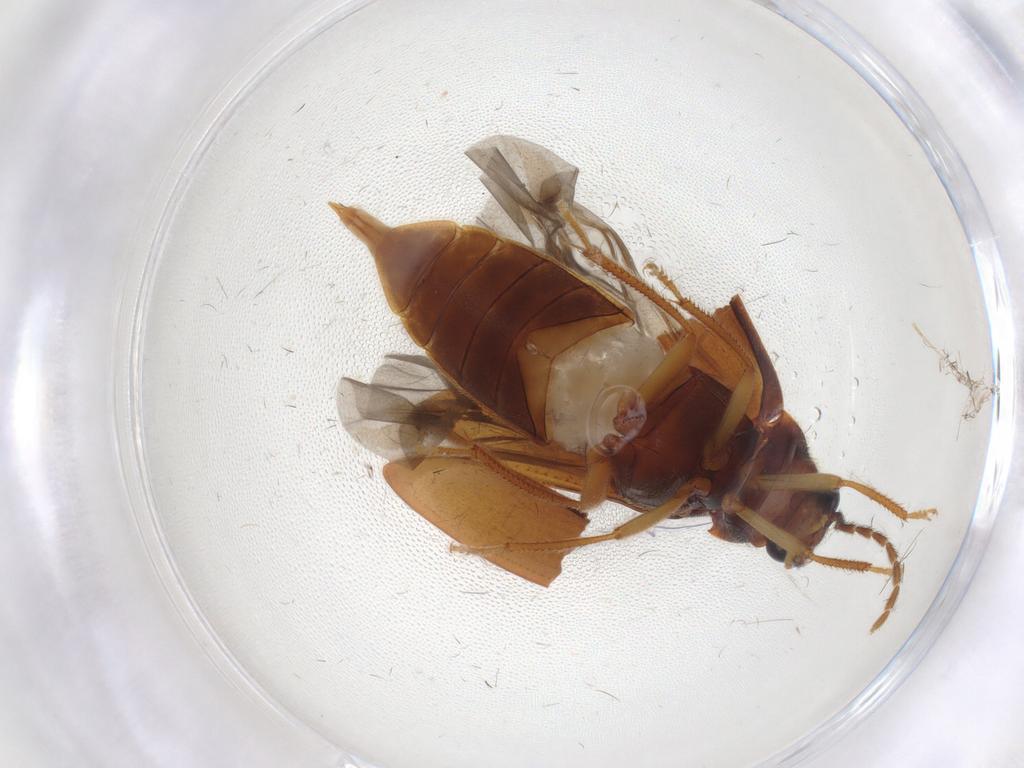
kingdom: Animalia
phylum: Arthropoda
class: Insecta
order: Coleoptera
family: Ptilodactylidae
